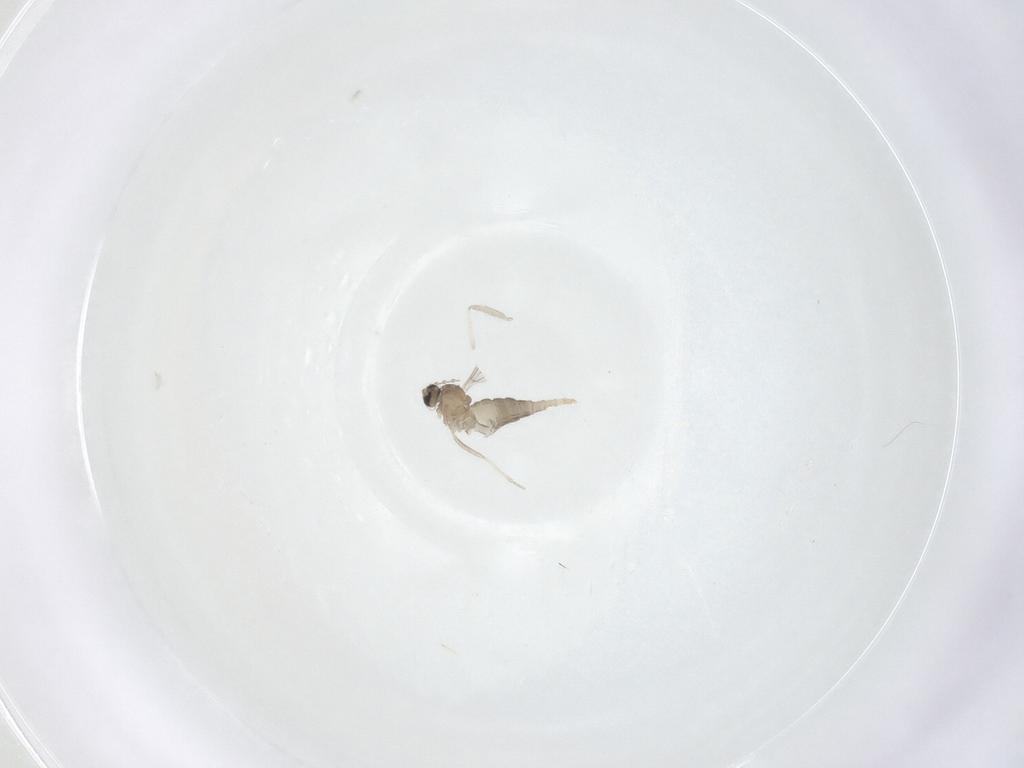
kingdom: Animalia
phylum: Arthropoda
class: Insecta
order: Diptera
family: Cecidomyiidae
